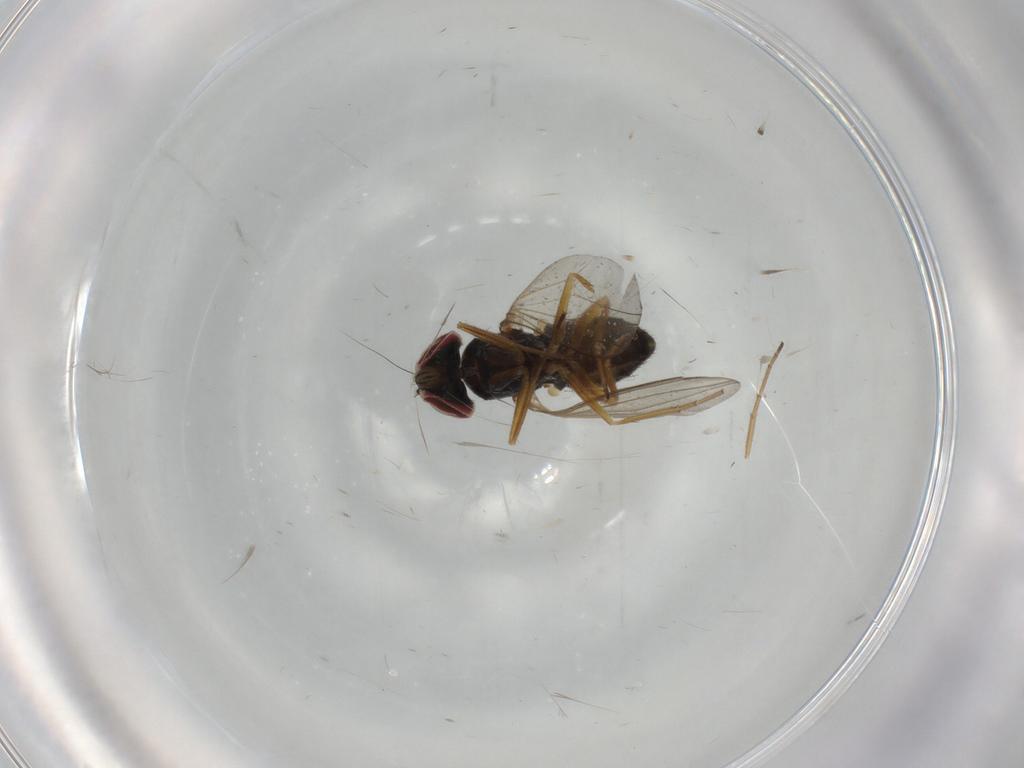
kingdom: Animalia
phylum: Arthropoda
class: Insecta
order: Diptera
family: Dolichopodidae
